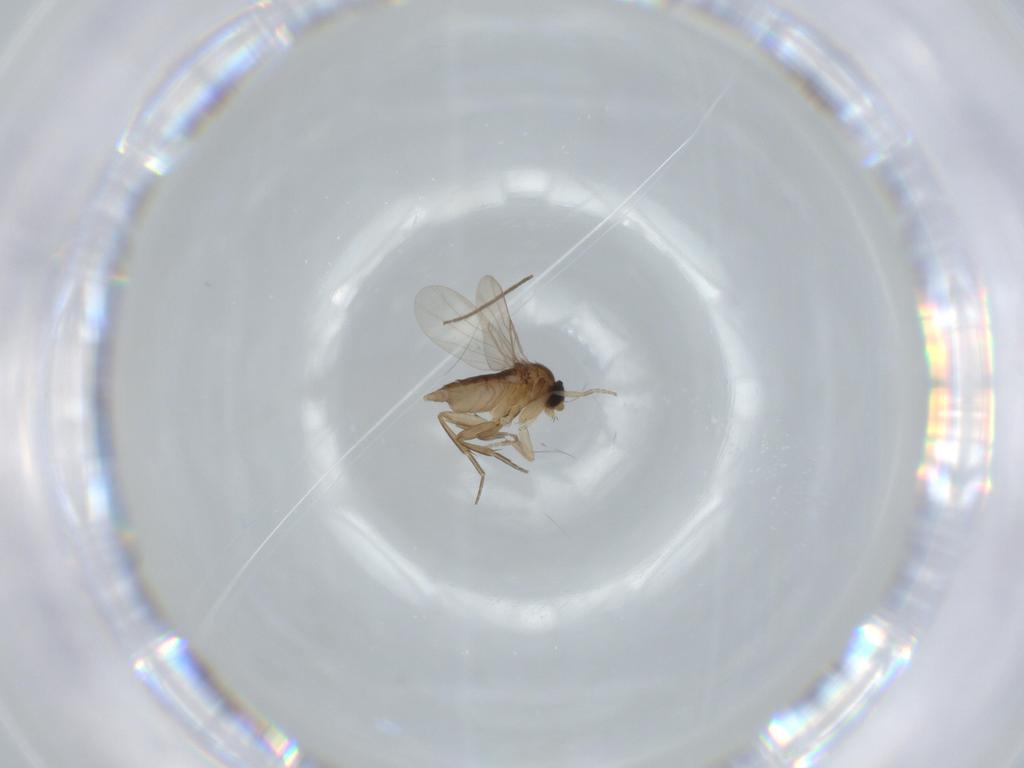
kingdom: Animalia
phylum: Arthropoda
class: Insecta
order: Diptera
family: Phoridae
